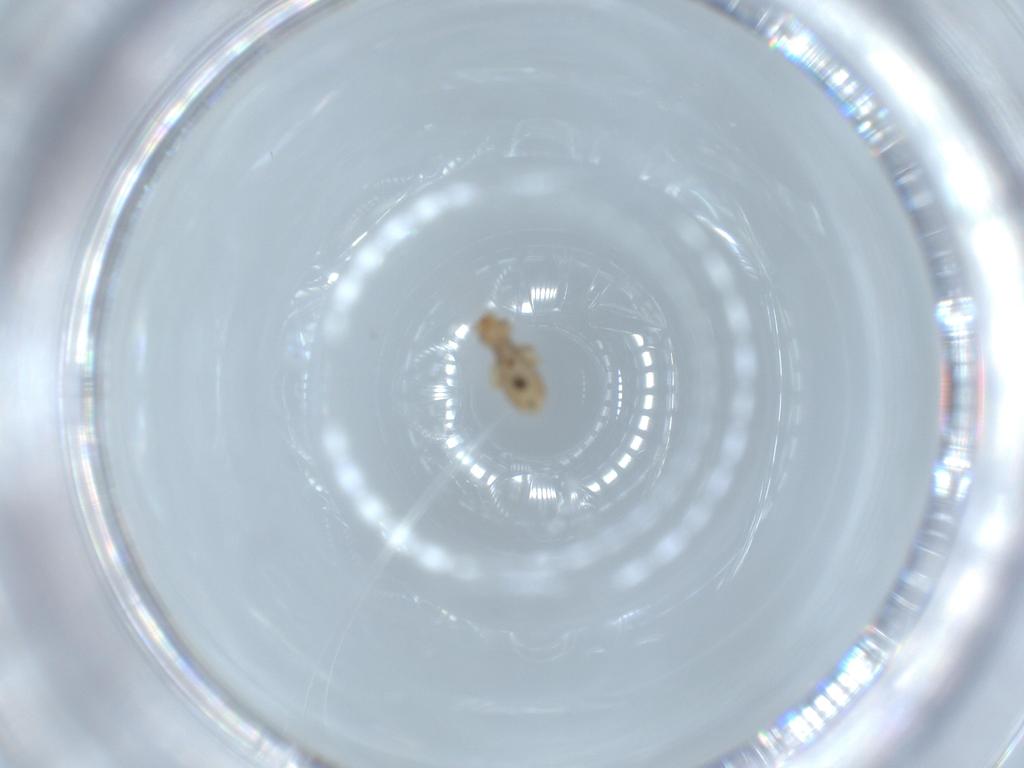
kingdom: Animalia
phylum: Arthropoda
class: Insecta
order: Psocodea
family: Liposcelididae
